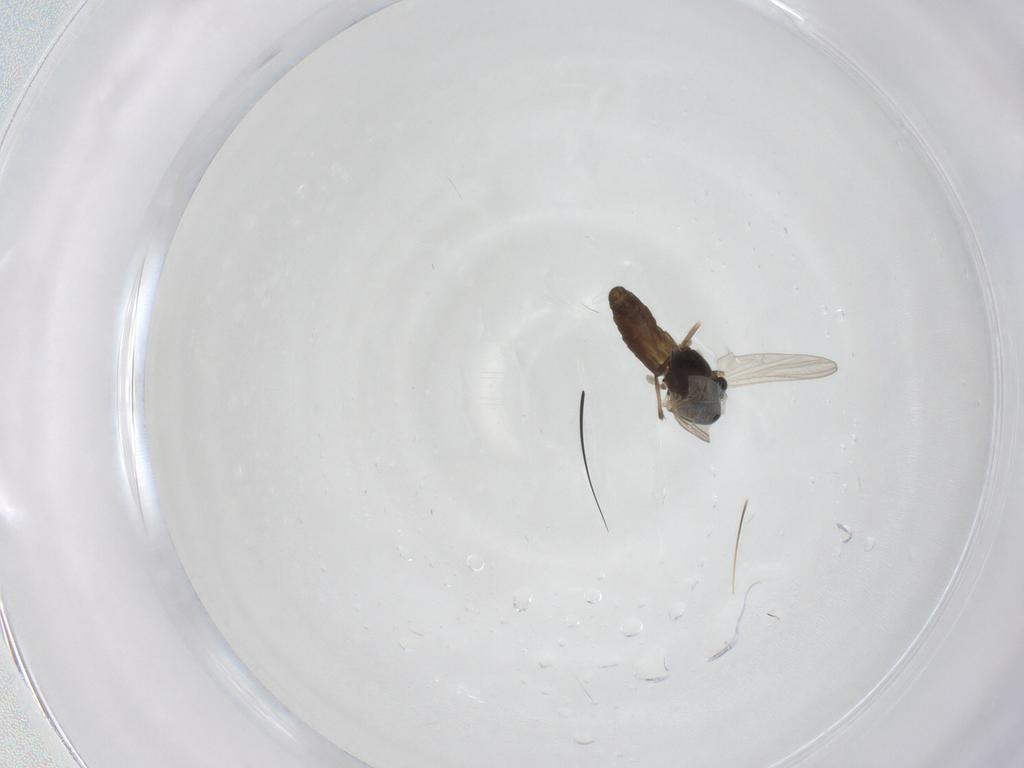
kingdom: Animalia
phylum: Arthropoda
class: Insecta
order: Diptera
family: Chironomidae
